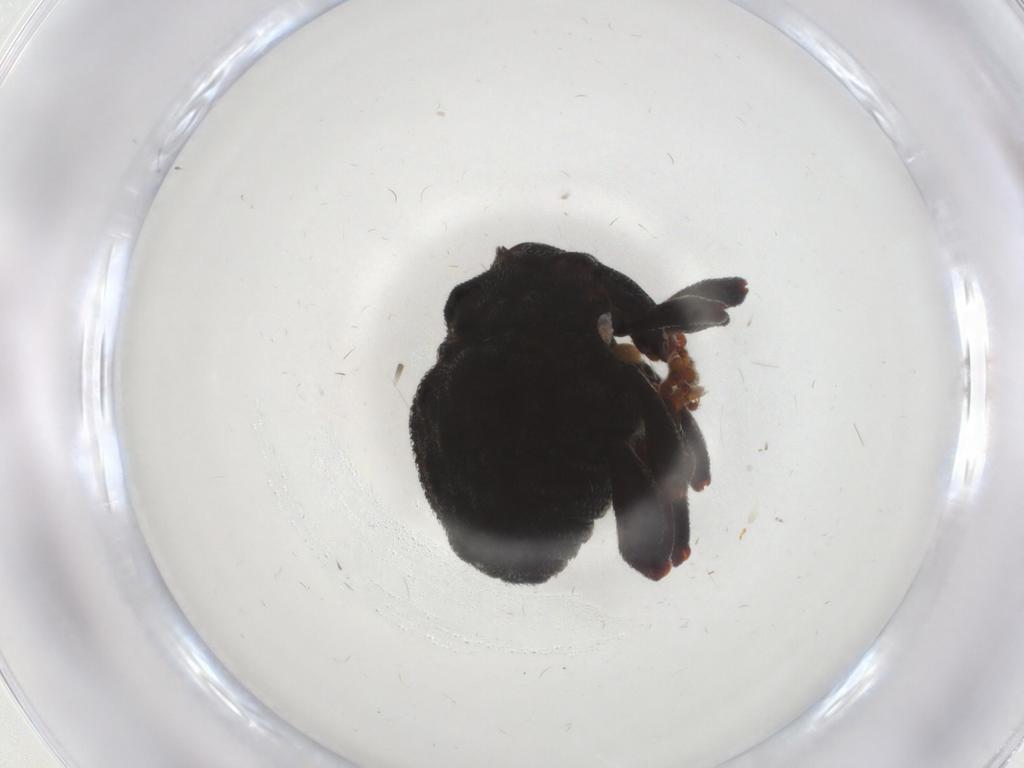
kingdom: Animalia
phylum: Arthropoda
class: Insecta
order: Coleoptera
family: Curculionidae
